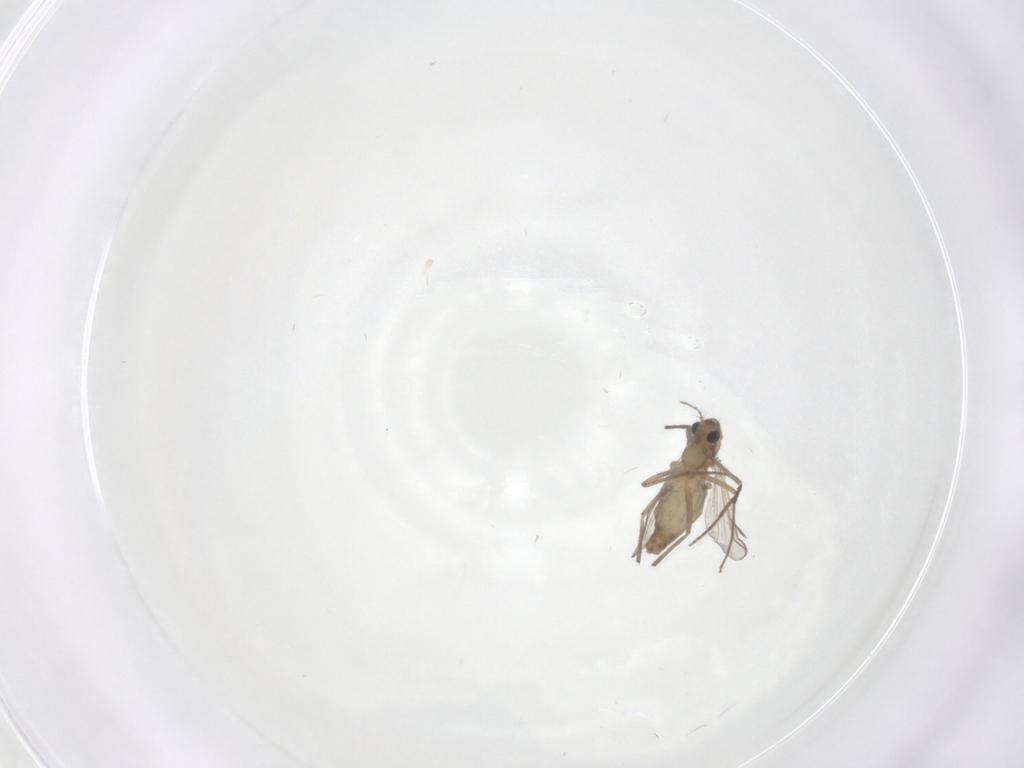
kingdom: Animalia
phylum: Arthropoda
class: Insecta
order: Diptera
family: Chironomidae
